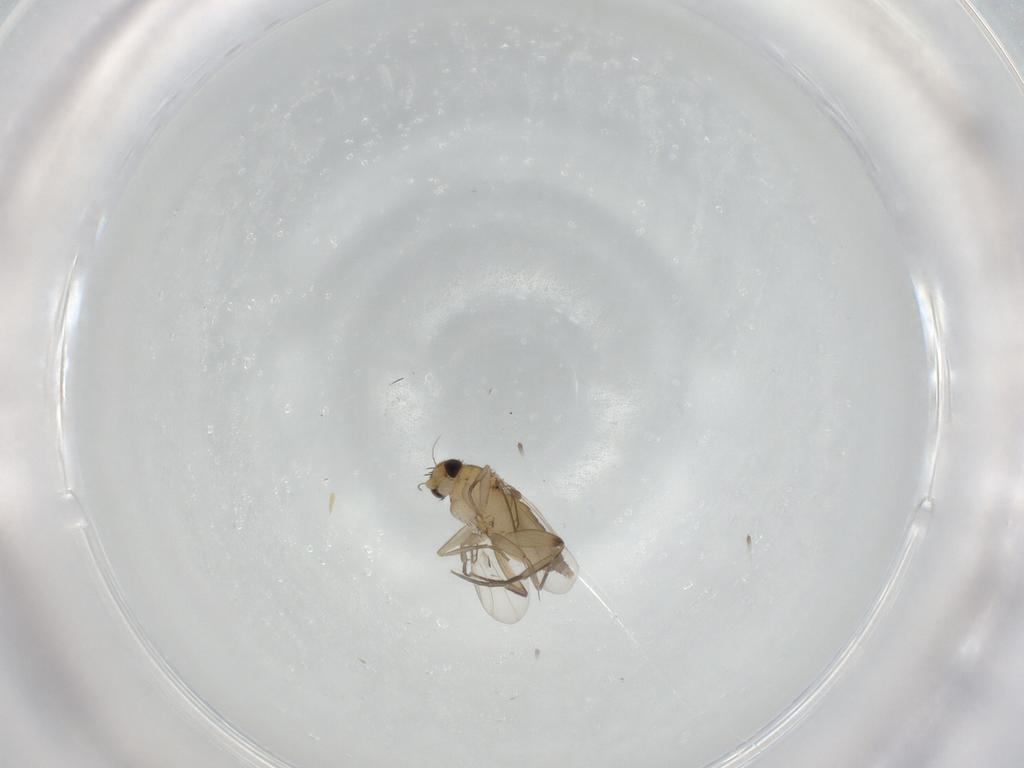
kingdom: Animalia
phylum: Arthropoda
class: Insecta
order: Diptera
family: Phoridae
